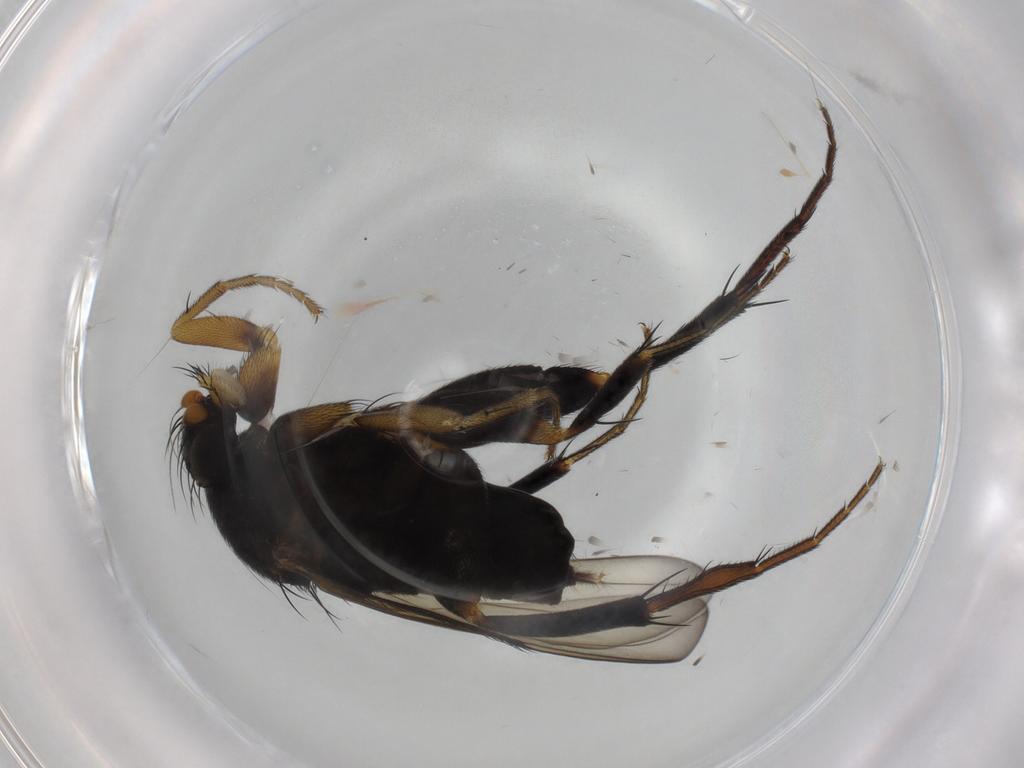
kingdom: Animalia
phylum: Arthropoda
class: Insecta
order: Diptera
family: Phoridae
